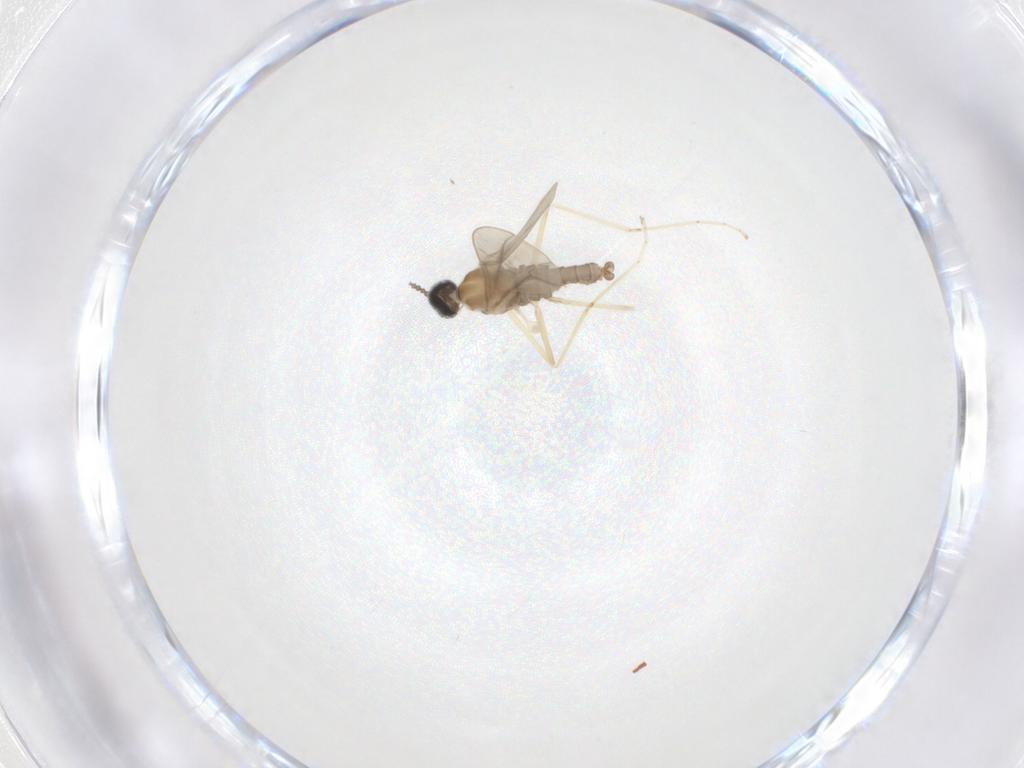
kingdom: Animalia
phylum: Arthropoda
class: Insecta
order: Diptera
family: Cecidomyiidae
